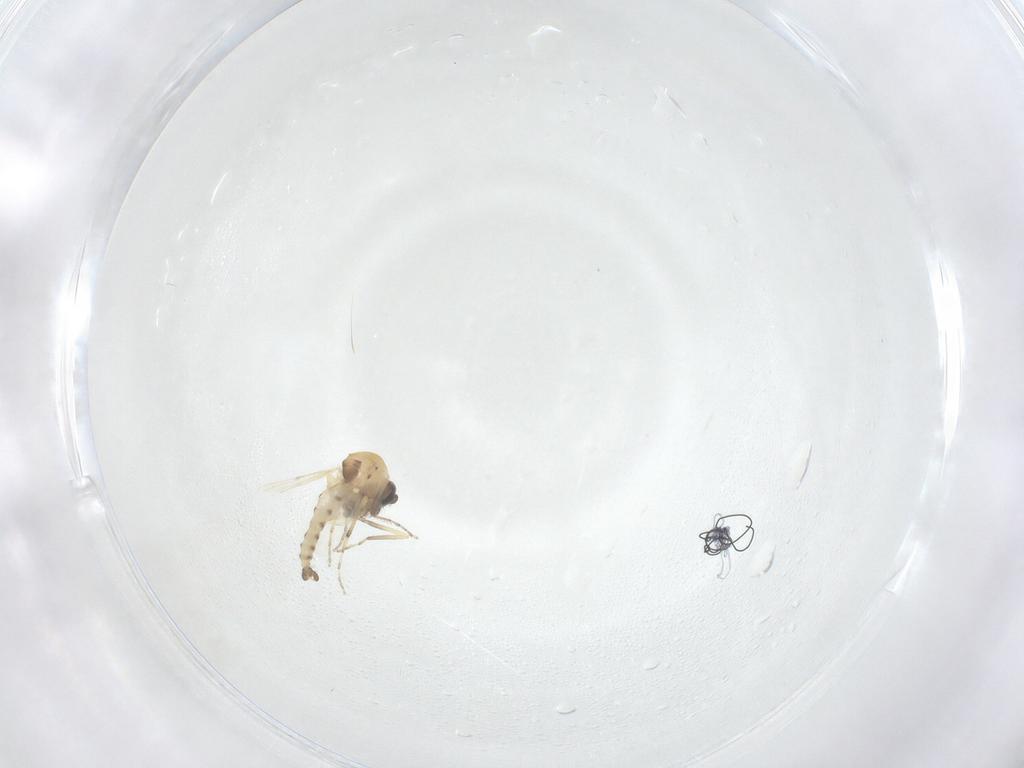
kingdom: Animalia
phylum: Arthropoda
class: Insecta
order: Diptera
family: Ceratopogonidae
